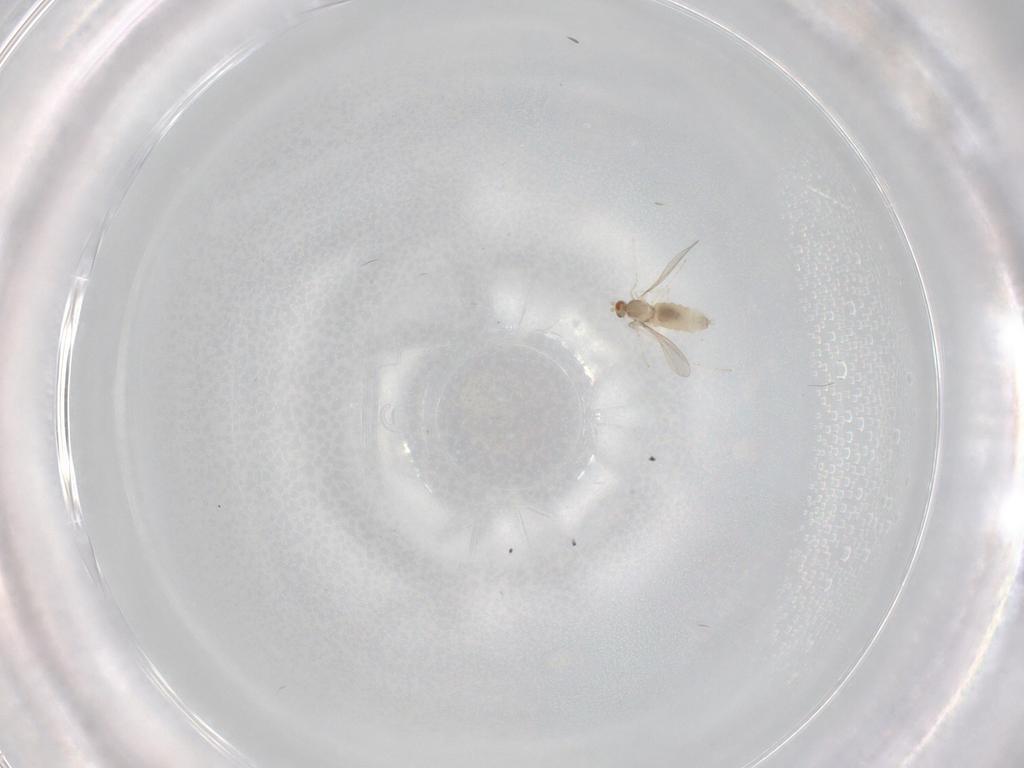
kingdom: Animalia
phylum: Arthropoda
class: Insecta
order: Diptera
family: Cecidomyiidae
